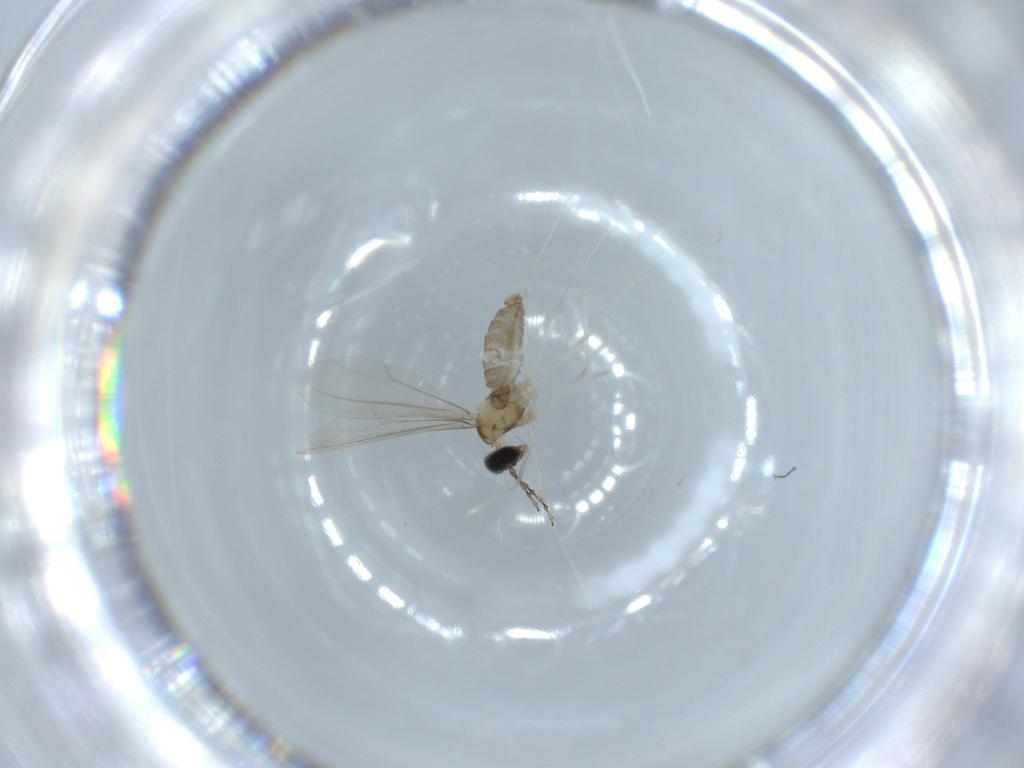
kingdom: Animalia
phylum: Arthropoda
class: Insecta
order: Diptera
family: Cecidomyiidae
